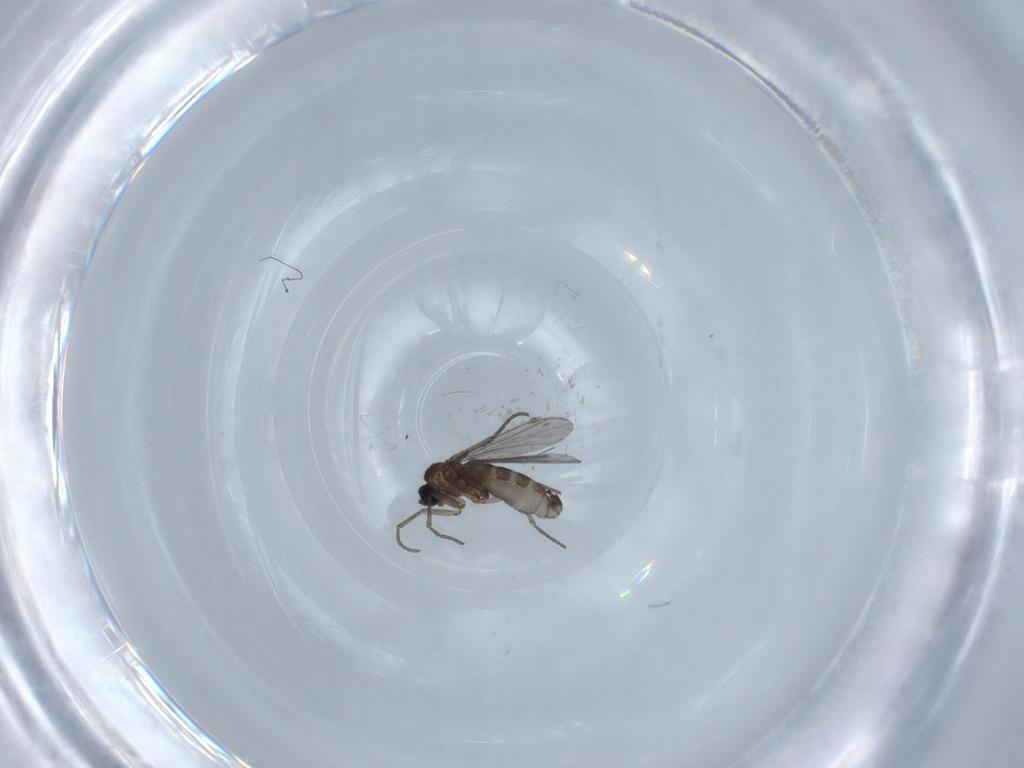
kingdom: Animalia
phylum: Arthropoda
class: Insecta
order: Diptera
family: Chironomidae
